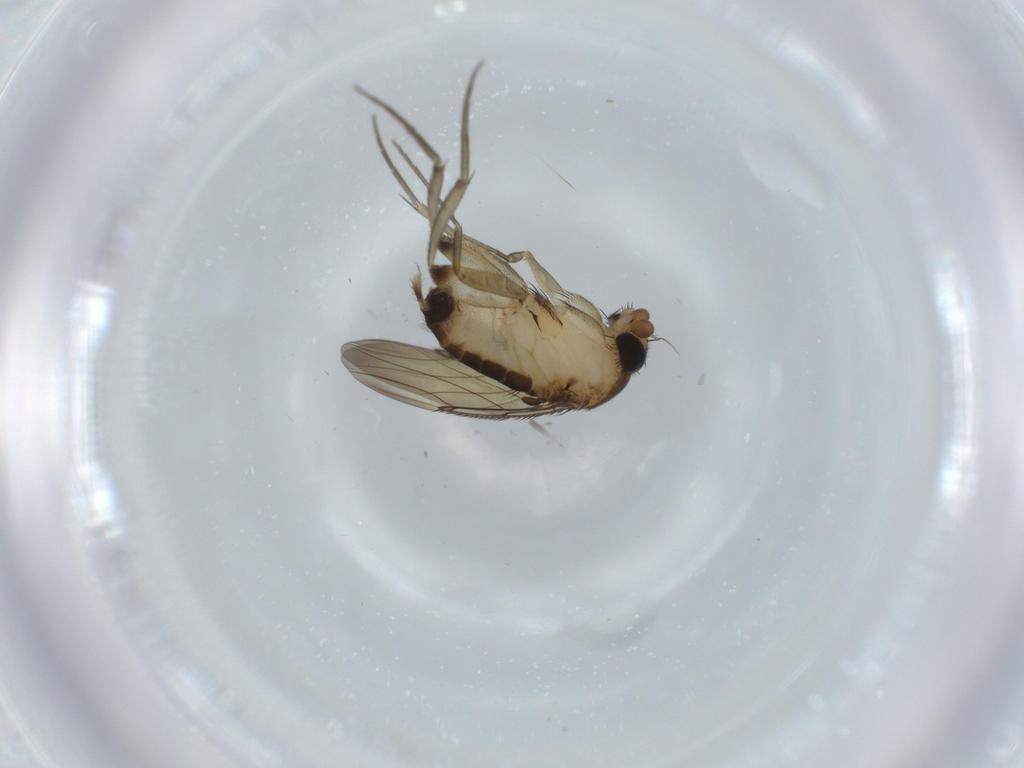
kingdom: Animalia
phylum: Arthropoda
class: Insecta
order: Diptera
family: Phoridae
